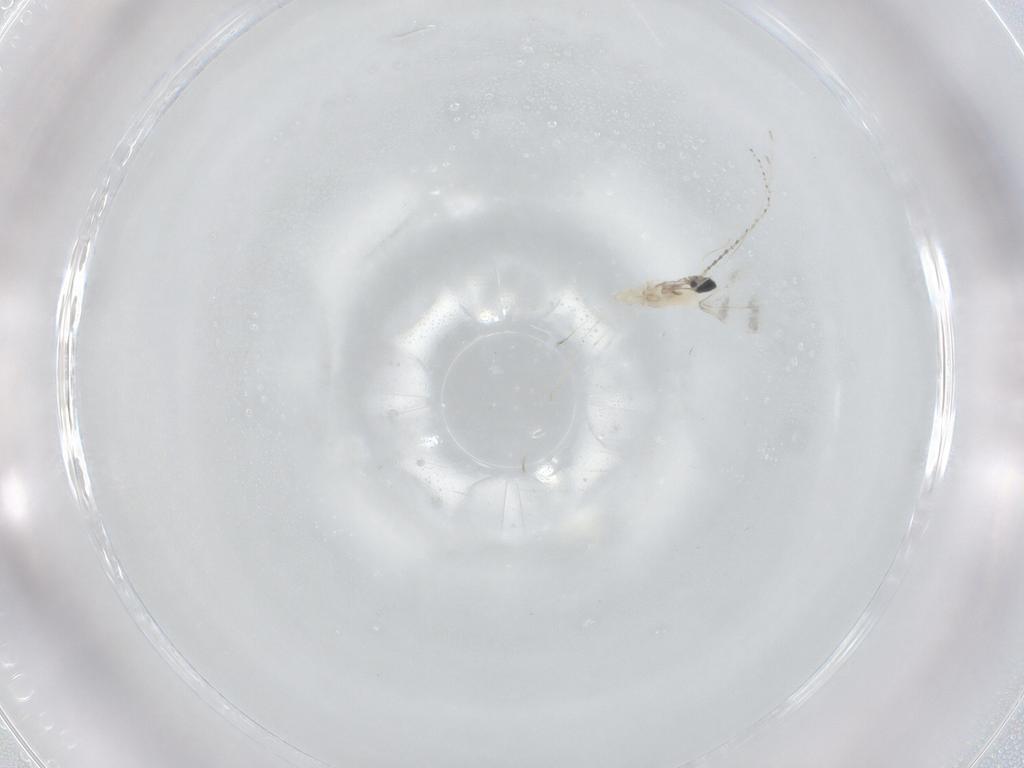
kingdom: Animalia
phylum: Arthropoda
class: Insecta
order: Diptera
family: Cecidomyiidae
